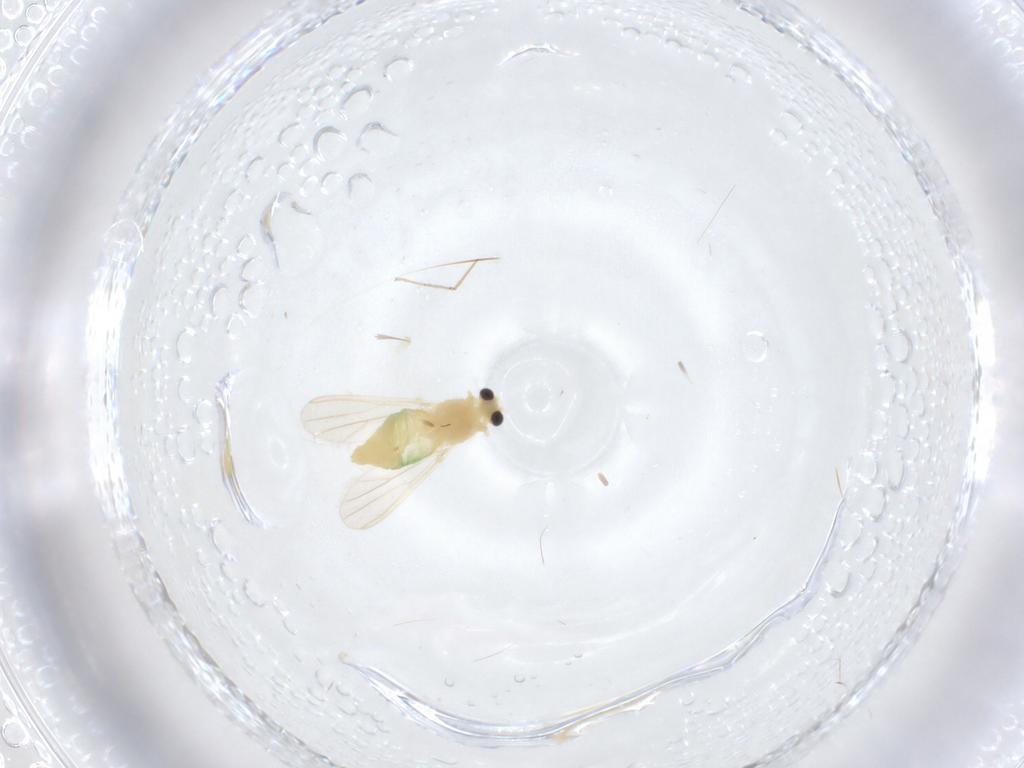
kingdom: Animalia
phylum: Arthropoda
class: Insecta
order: Diptera
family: Chironomidae
